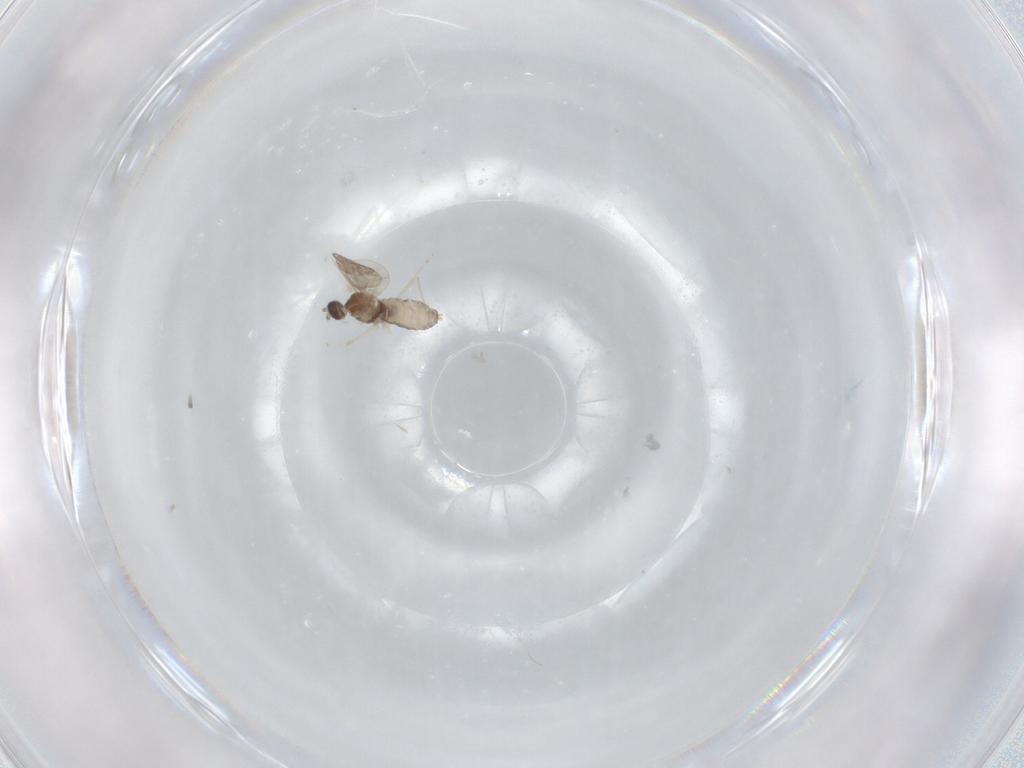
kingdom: Animalia
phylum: Arthropoda
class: Insecta
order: Diptera
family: Cecidomyiidae
